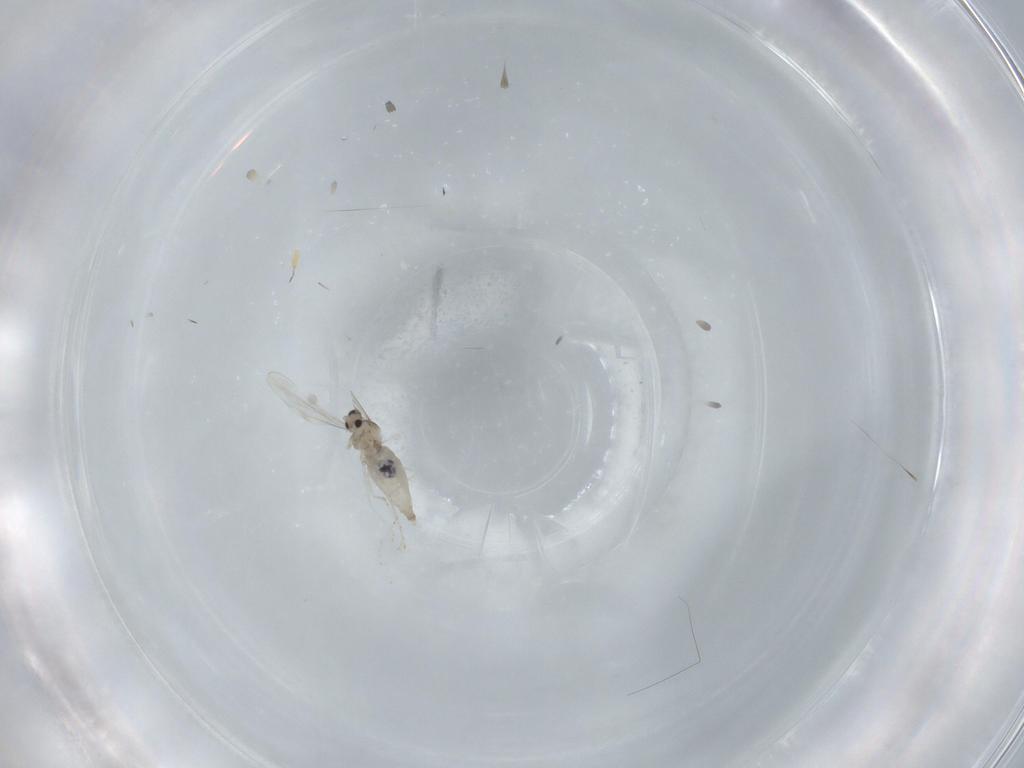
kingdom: Animalia
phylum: Arthropoda
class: Insecta
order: Diptera
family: Cecidomyiidae
